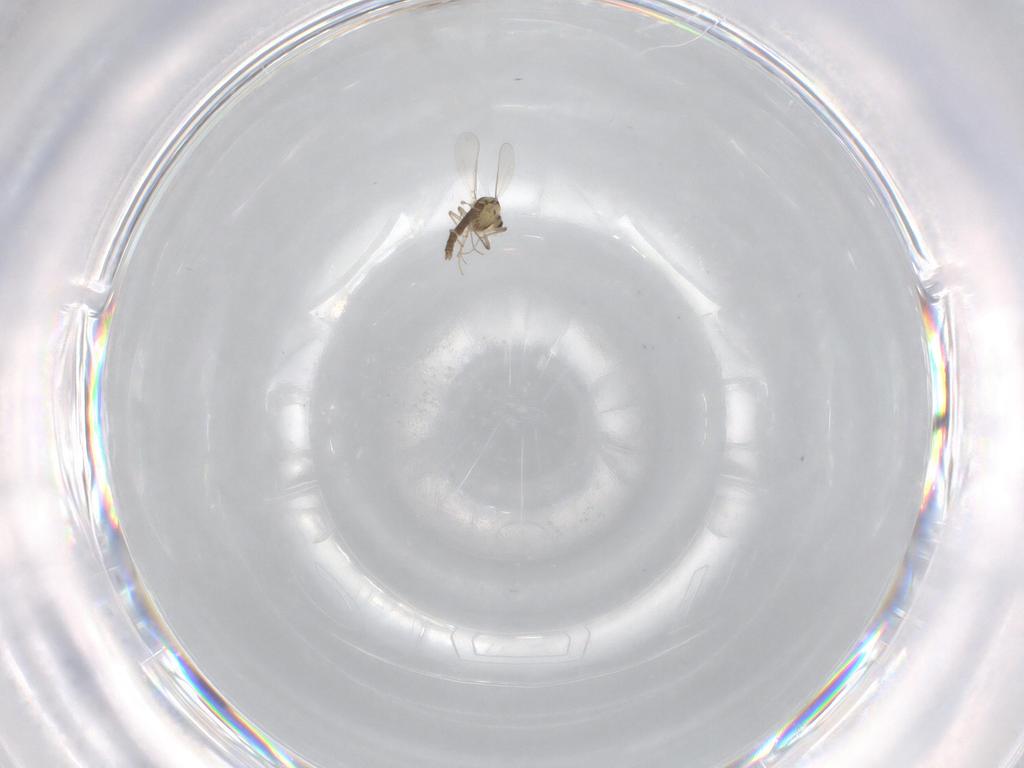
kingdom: Animalia
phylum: Arthropoda
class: Insecta
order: Diptera
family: Chironomidae
